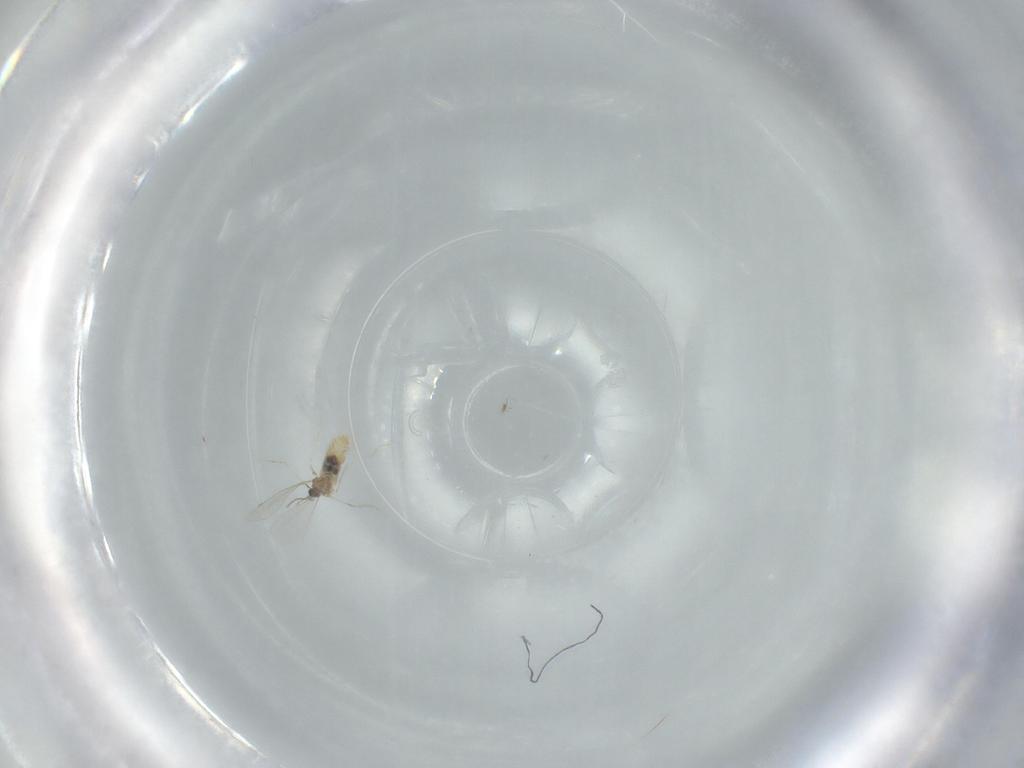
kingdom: Animalia
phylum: Arthropoda
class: Insecta
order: Diptera
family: Cecidomyiidae
